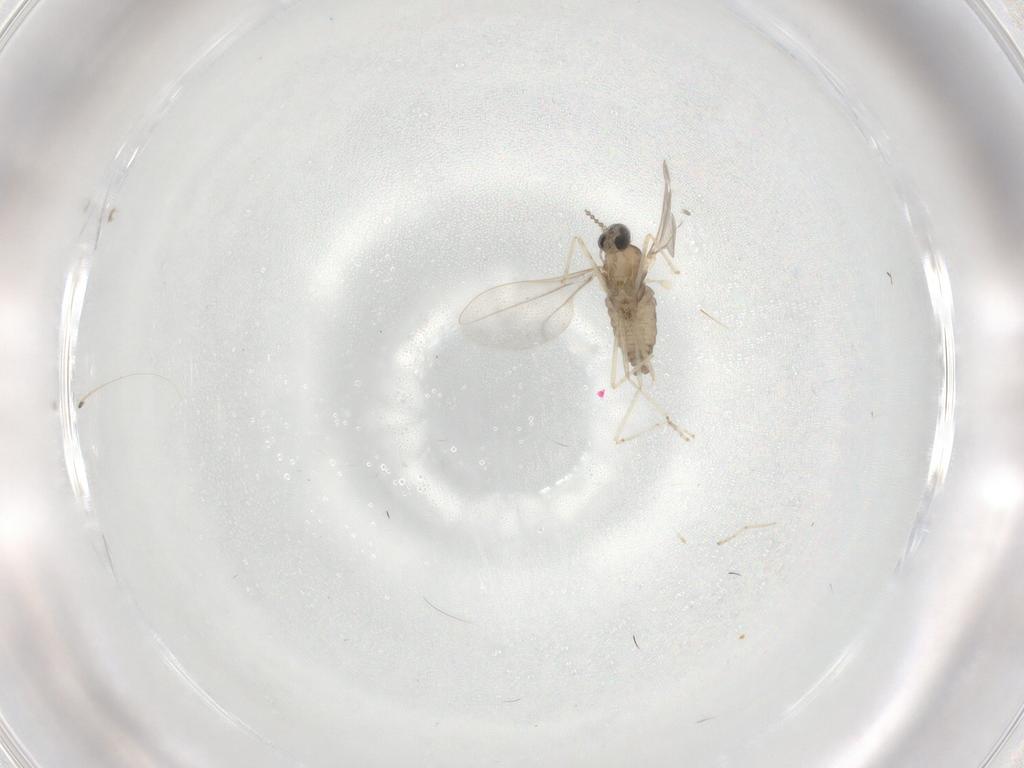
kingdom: Animalia
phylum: Arthropoda
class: Insecta
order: Diptera
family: Cecidomyiidae
